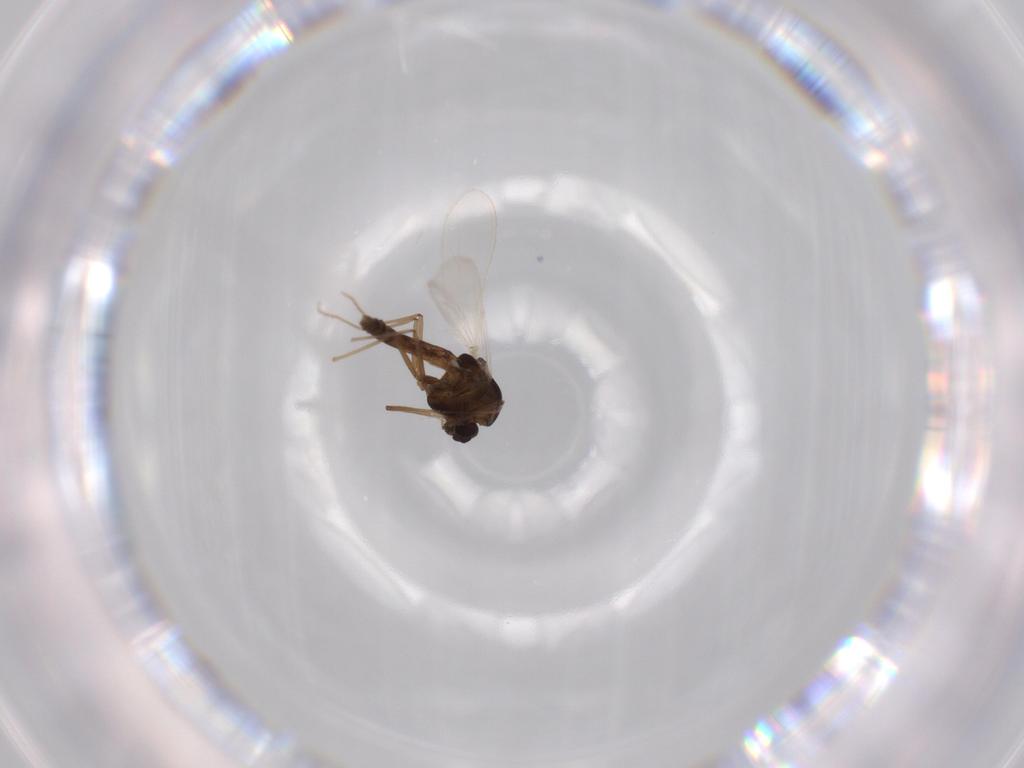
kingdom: Animalia
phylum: Arthropoda
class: Insecta
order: Diptera
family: Chironomidae
